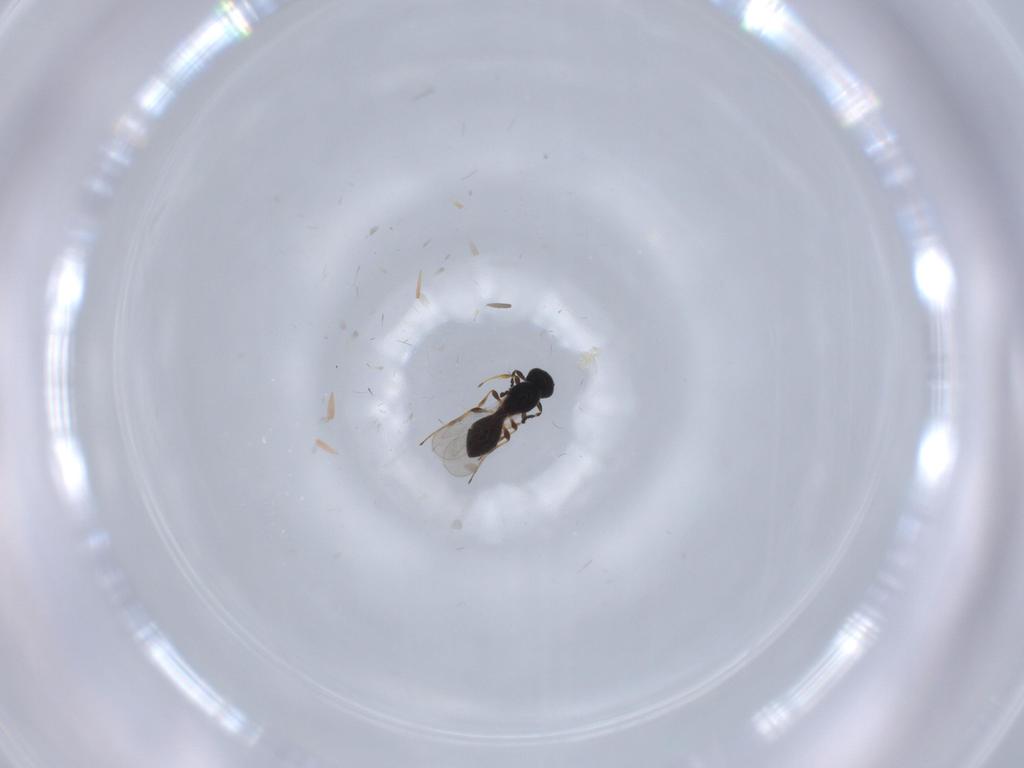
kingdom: Animalia
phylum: Arthropoda
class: Insecta
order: Hymenoptera
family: Platygastridae
